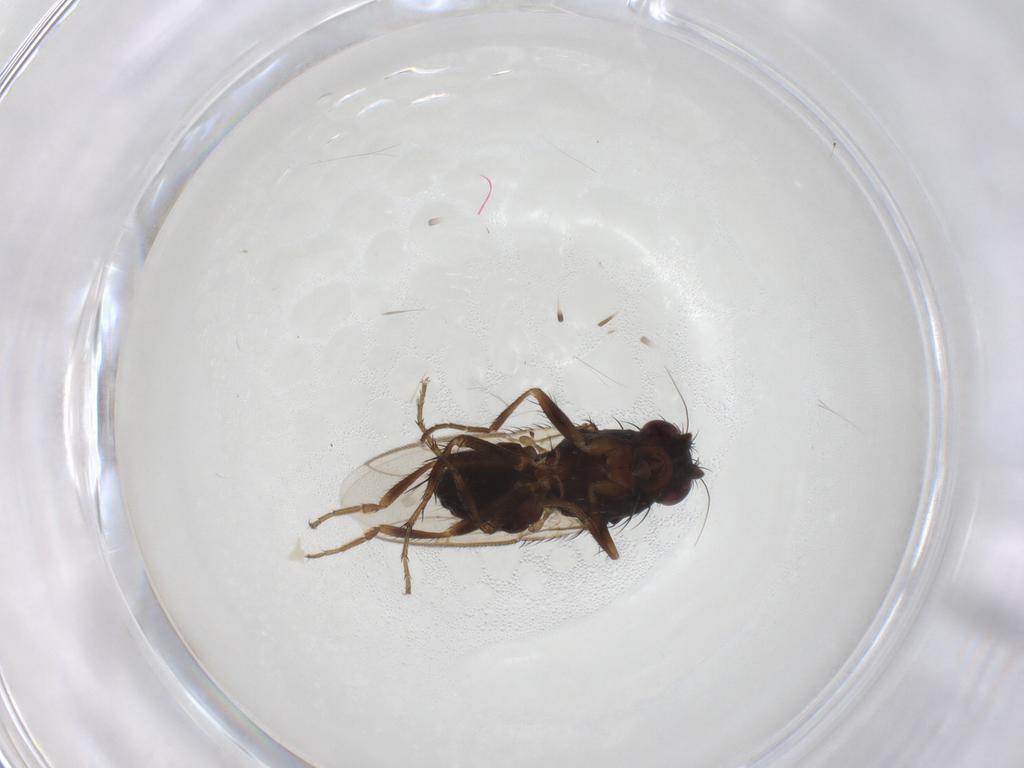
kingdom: Animalia
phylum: Arthropoda
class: Insecta
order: Diptera
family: Sphaeroceridae
